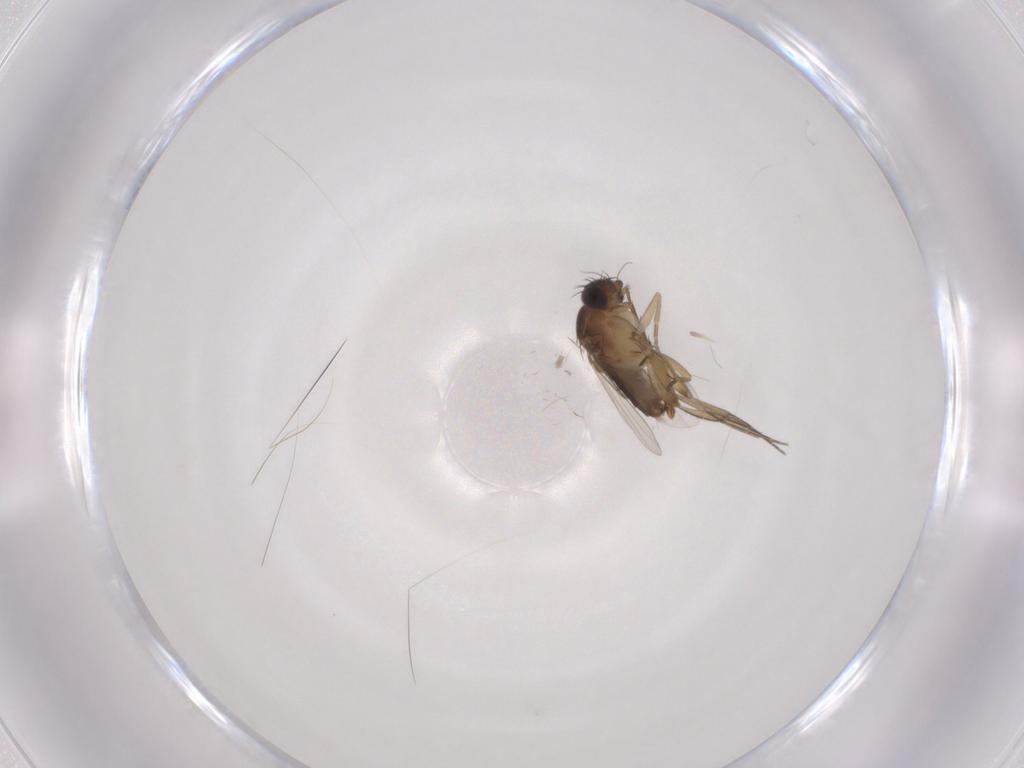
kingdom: Animalia
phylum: Arthropoda
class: Insecta
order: Diptera
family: Phoridae
